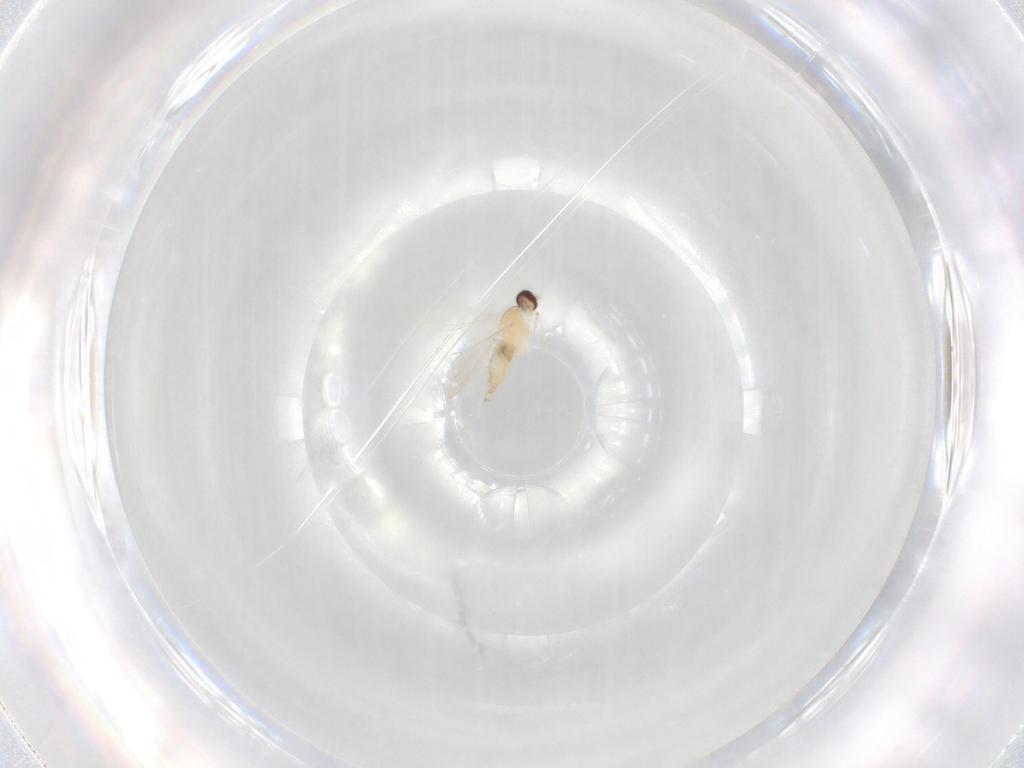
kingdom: Animalia
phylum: Arthropoda
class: Insecta
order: Diptera
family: Cecidomyiidae
